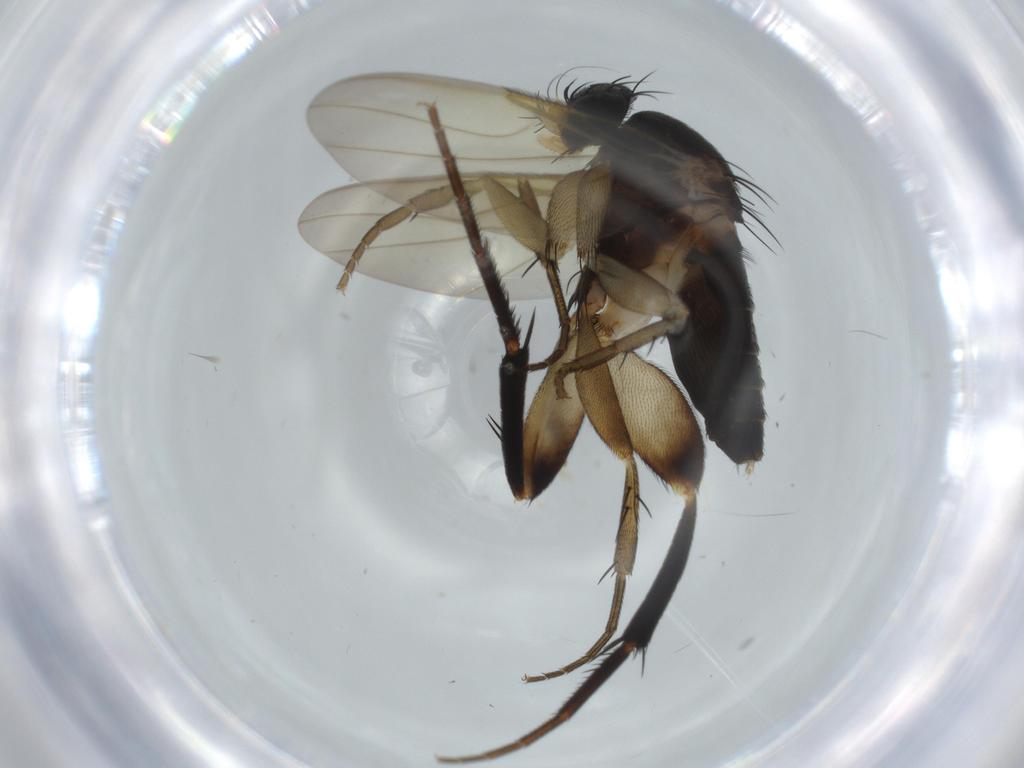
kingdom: Animalia
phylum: Arthropoda
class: Insecta
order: Diptera
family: Phoridae
